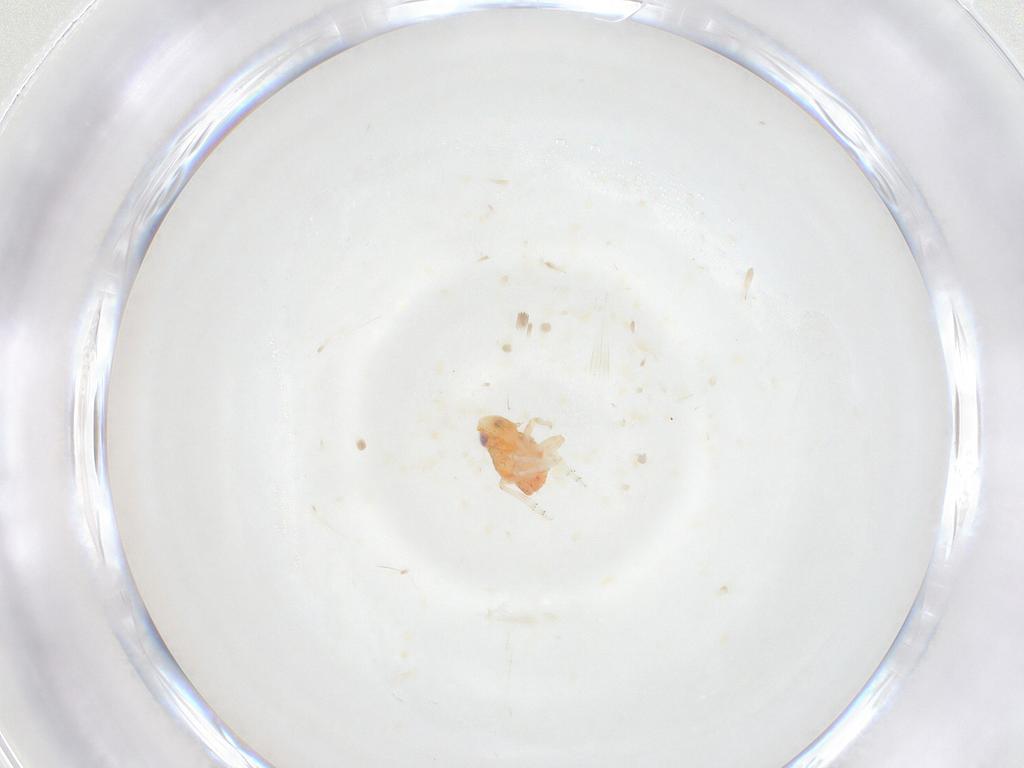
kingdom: Animalia
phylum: Arthropoda
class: Insecta
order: Hemiptera
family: Issidae
